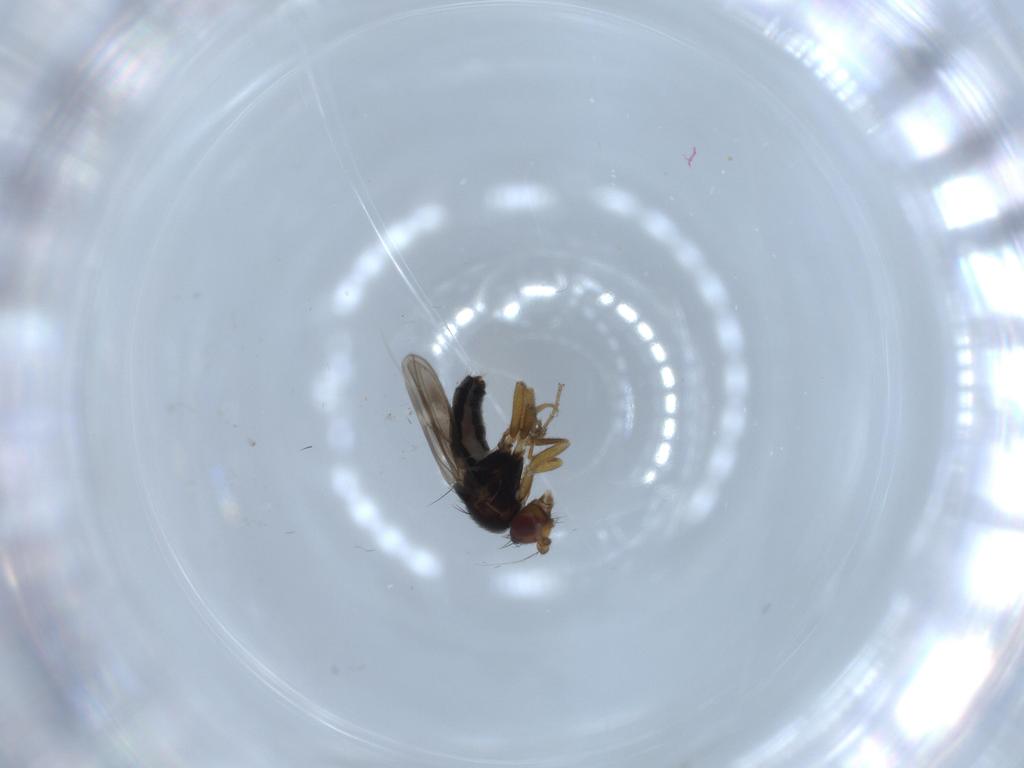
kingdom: Animalia
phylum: Arthropoda
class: Insecta
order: Diptera
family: Sphaeroceridae
